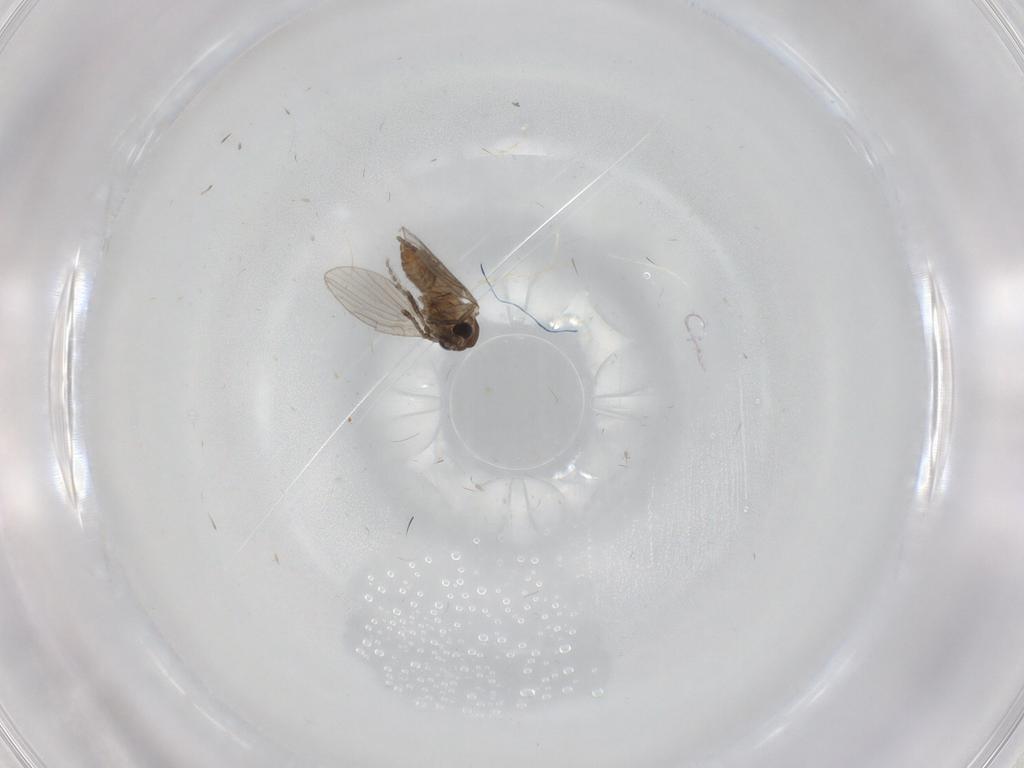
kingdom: Animalia
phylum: Arthropoda
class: Insecta
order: Diptera
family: Cecidomyiidae
